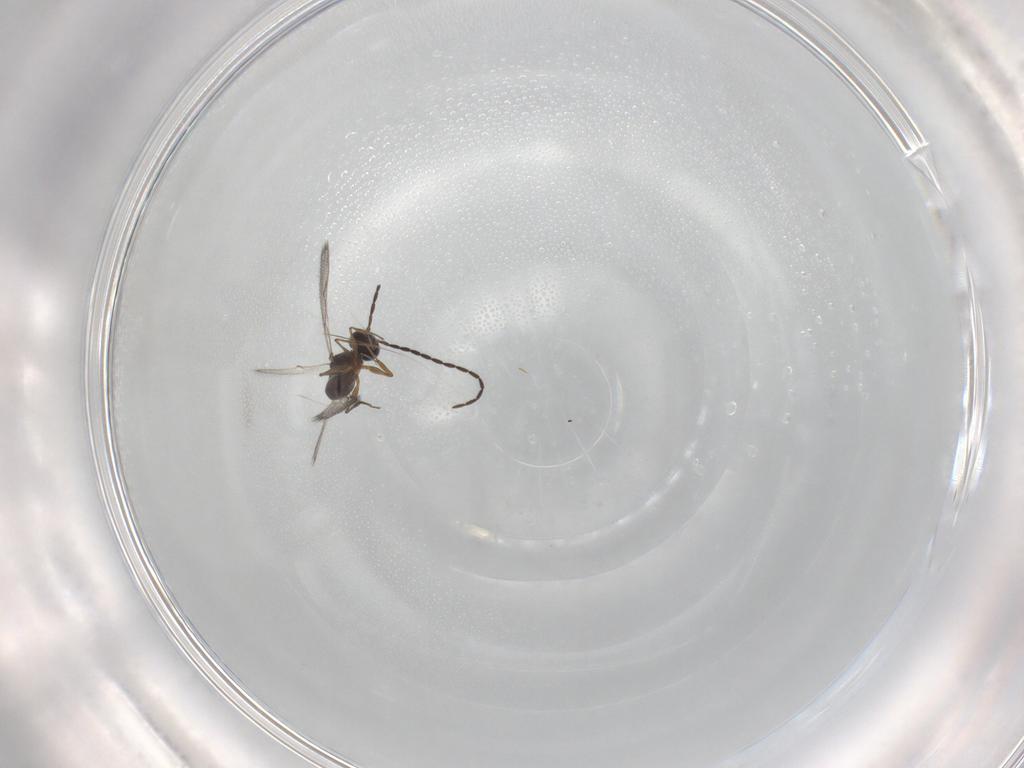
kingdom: Animalia
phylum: Arthropoda
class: Insecta
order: Hymenoptera
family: Figitidae
